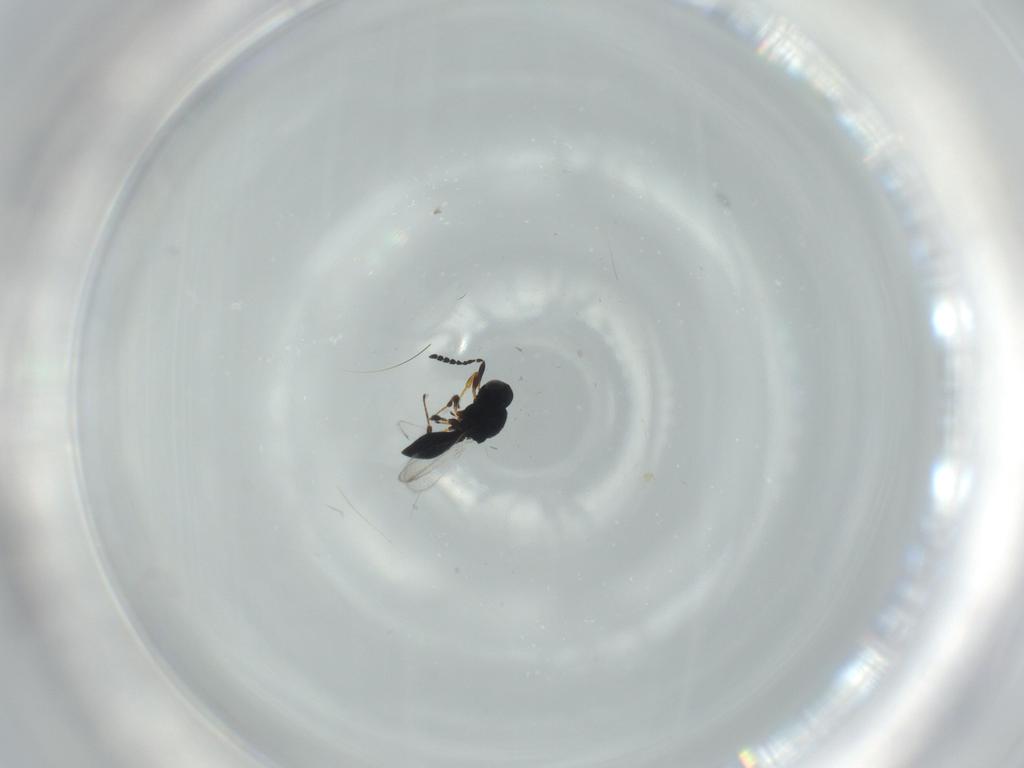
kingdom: Animalia
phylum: Arthropoda
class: Insecta
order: Hymenoptera
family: Platygastridae
